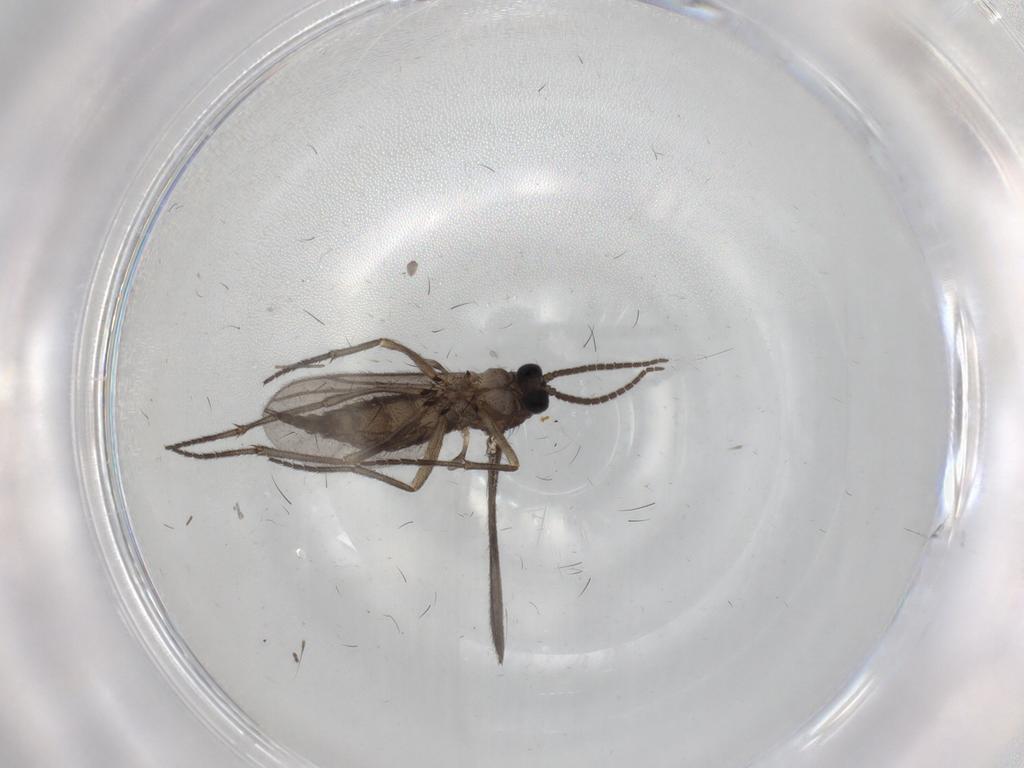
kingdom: Animalia
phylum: Arthropoda
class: Insecta
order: Diptera
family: Sciaridae
